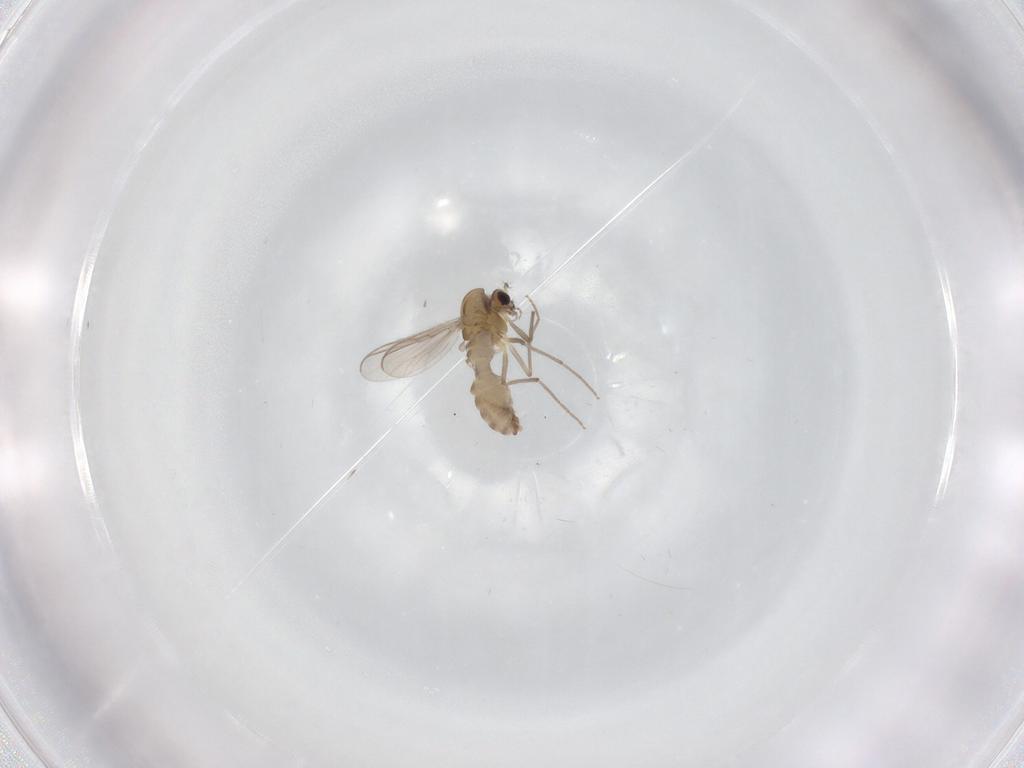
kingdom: Animalia
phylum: Arthropoda
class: Insecta
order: Diptera
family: Chironomidae
